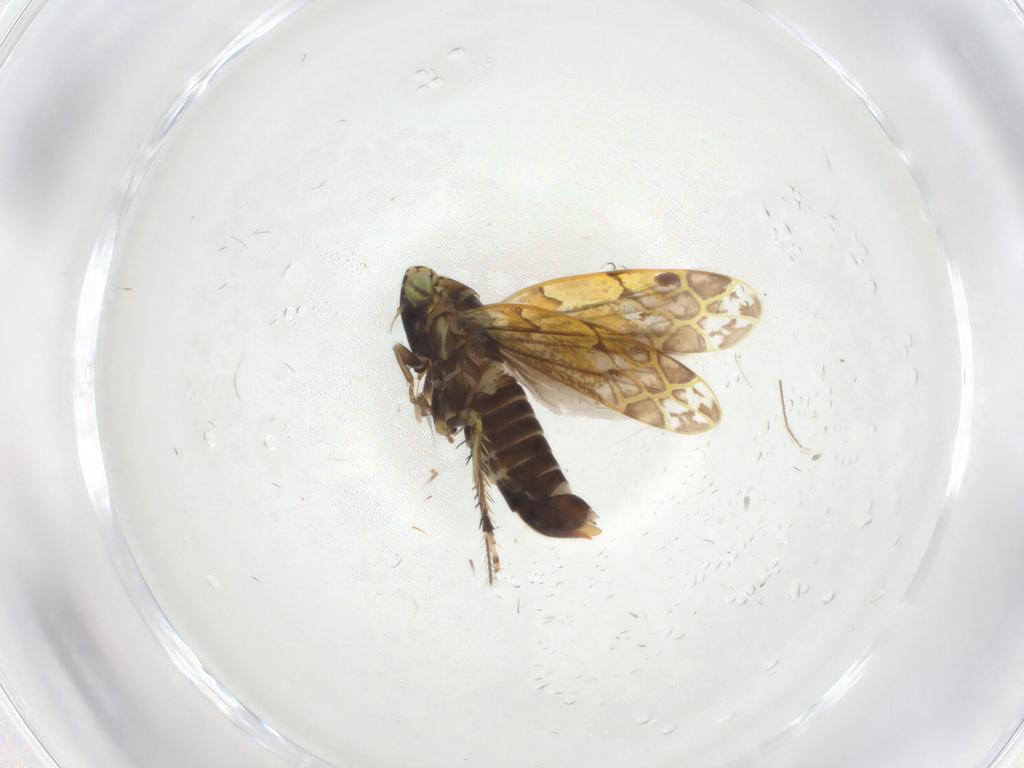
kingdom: Animalia
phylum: Arthropoda
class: Insecta
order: Hemiptera
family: Cicadellidae
